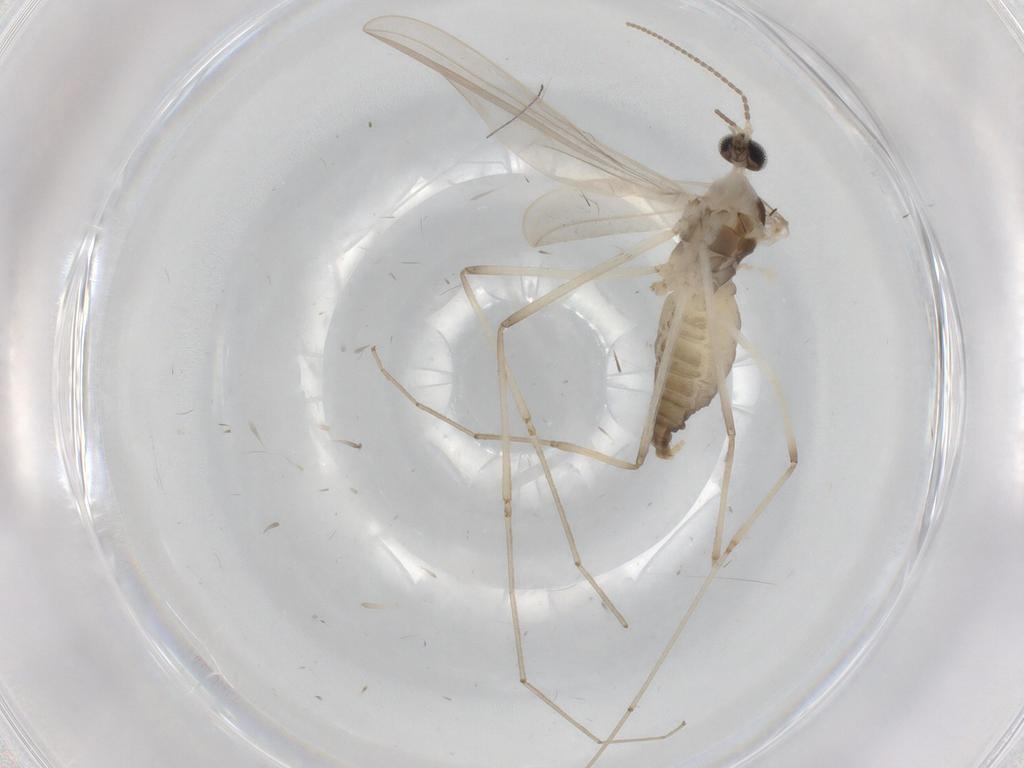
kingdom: Animalia
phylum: Arthropoda
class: Insecta
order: Diptera
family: Cecidomyiidae
